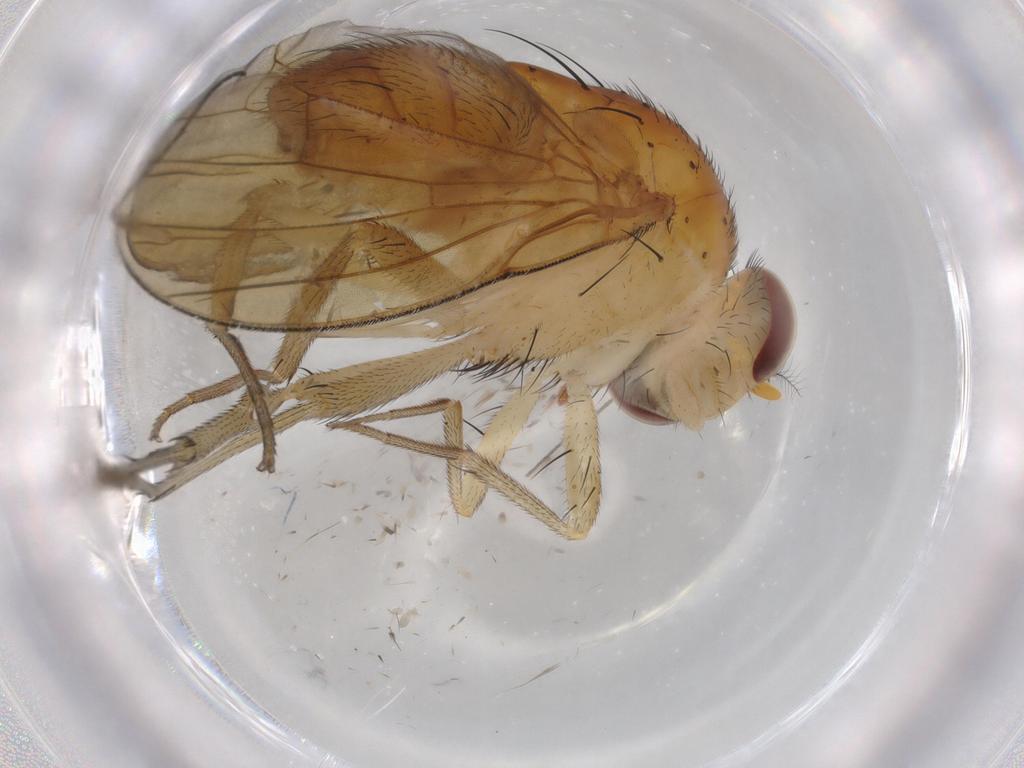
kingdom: Animalia
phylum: Arthropoda
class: Insecta
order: Diptera
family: Sciaridae
